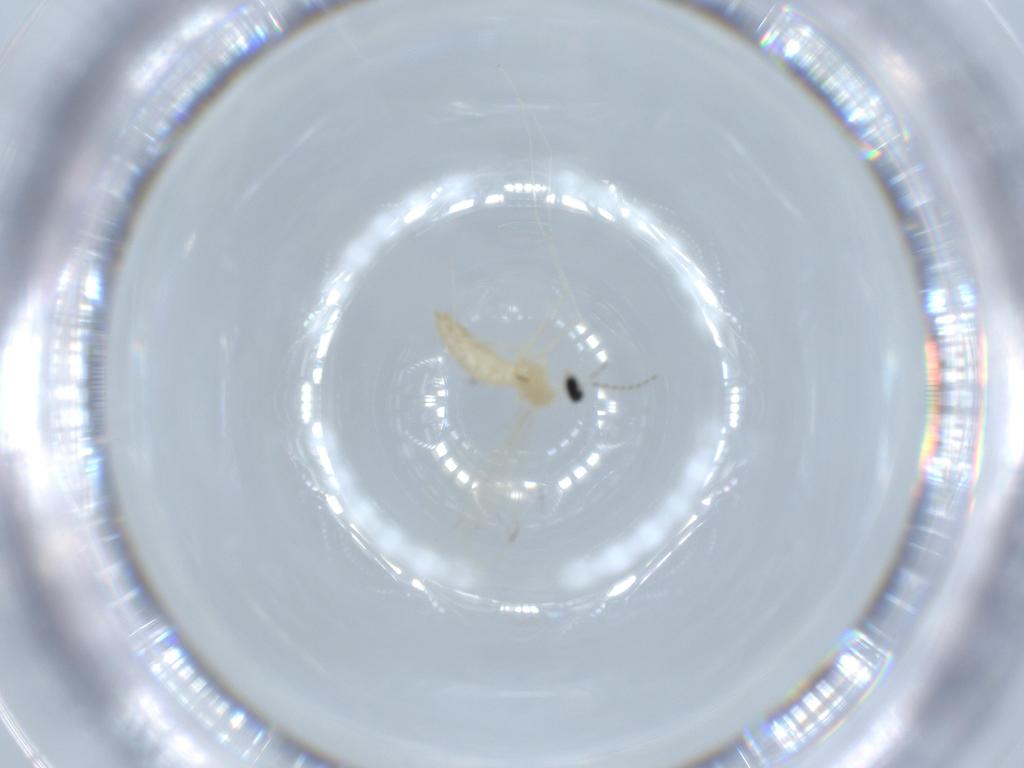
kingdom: Animalia
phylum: Arthropoda
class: Insecta
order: Diptera
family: Cecidomyiidae
